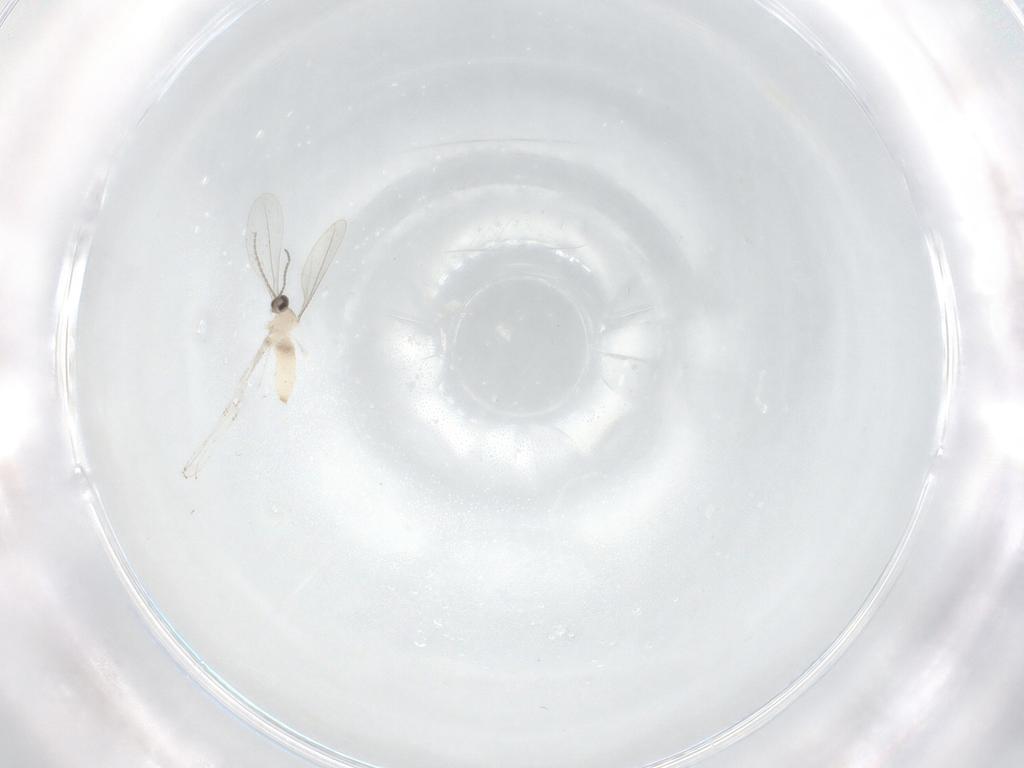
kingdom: Animalia
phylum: Arthropoda
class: Insecta
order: Diptera
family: Cecidomyiidae
